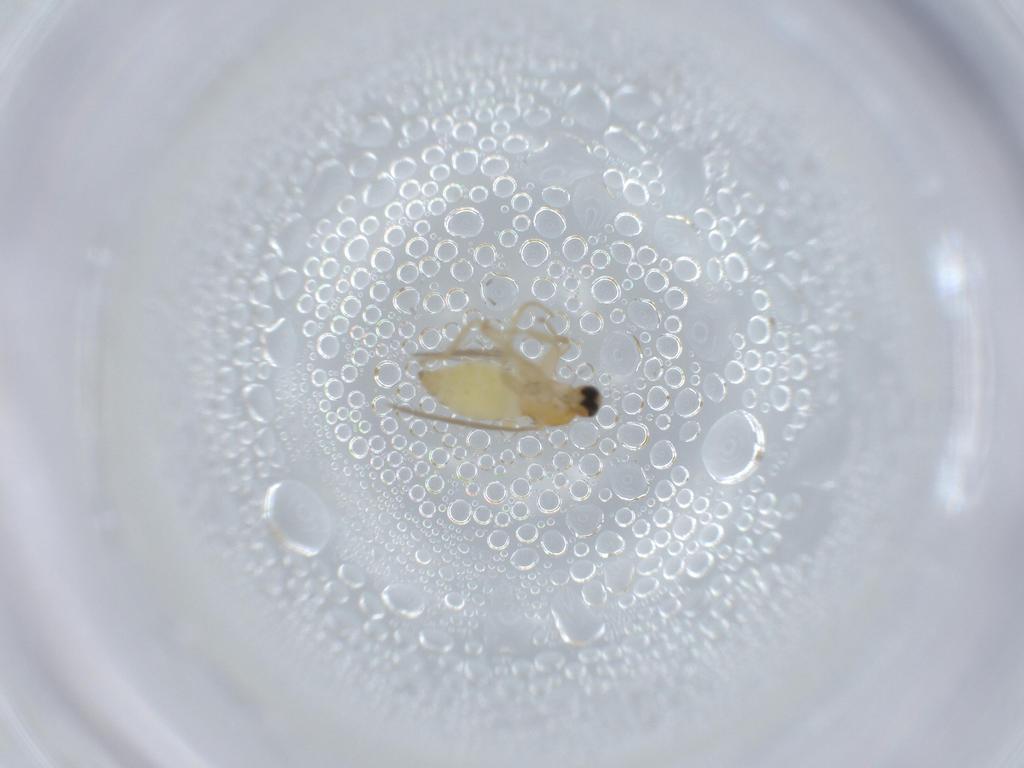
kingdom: Animalia
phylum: Arthropoda
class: Insecta
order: Diptera
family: Hybotidae
